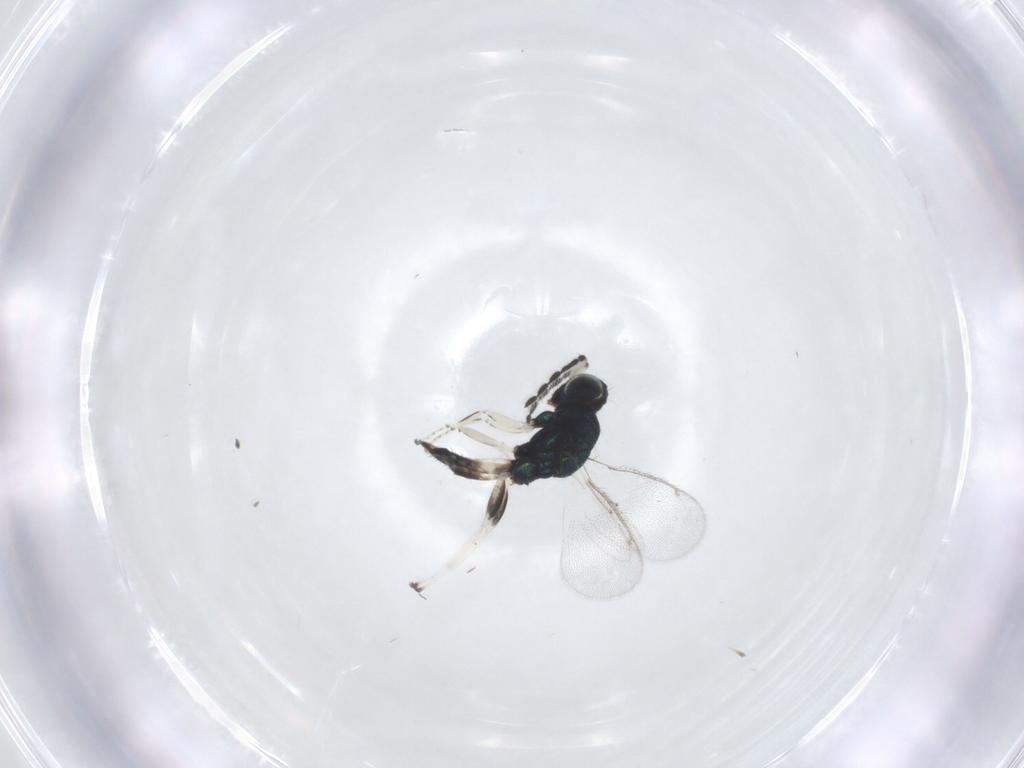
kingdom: Animalia
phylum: Arthropoda
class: Insecta
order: Hymenoptera
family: Eulophidae
